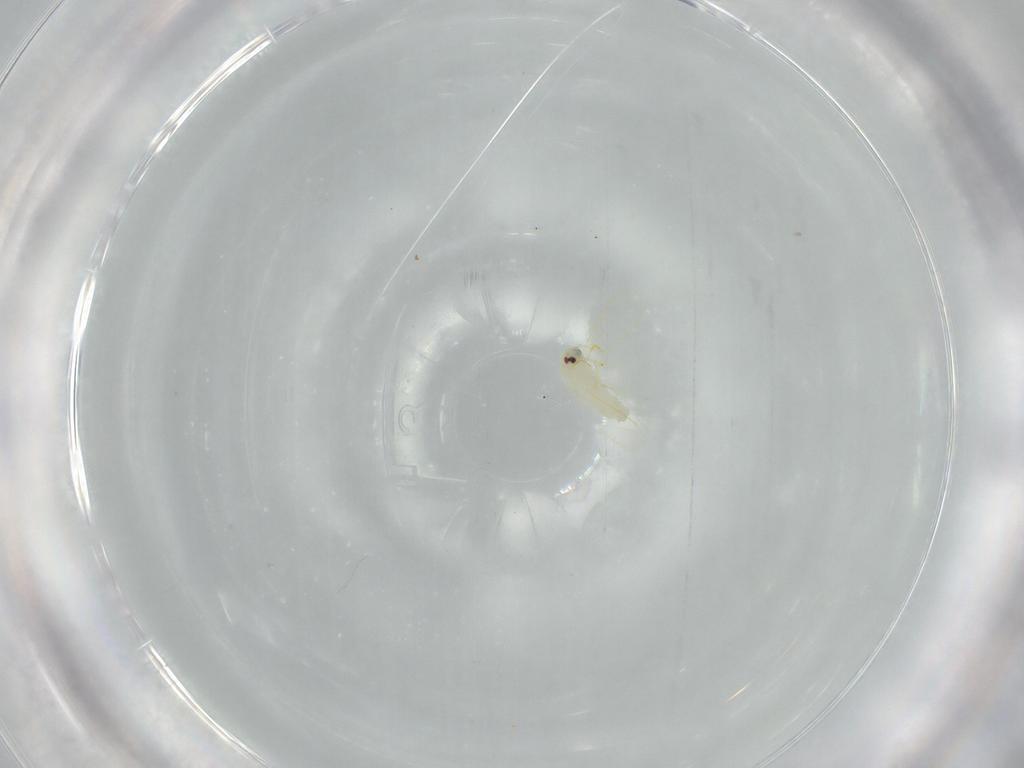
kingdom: Animalia
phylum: Arthropoda
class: Insecta
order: Hemiptera
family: Aleyrodidae
